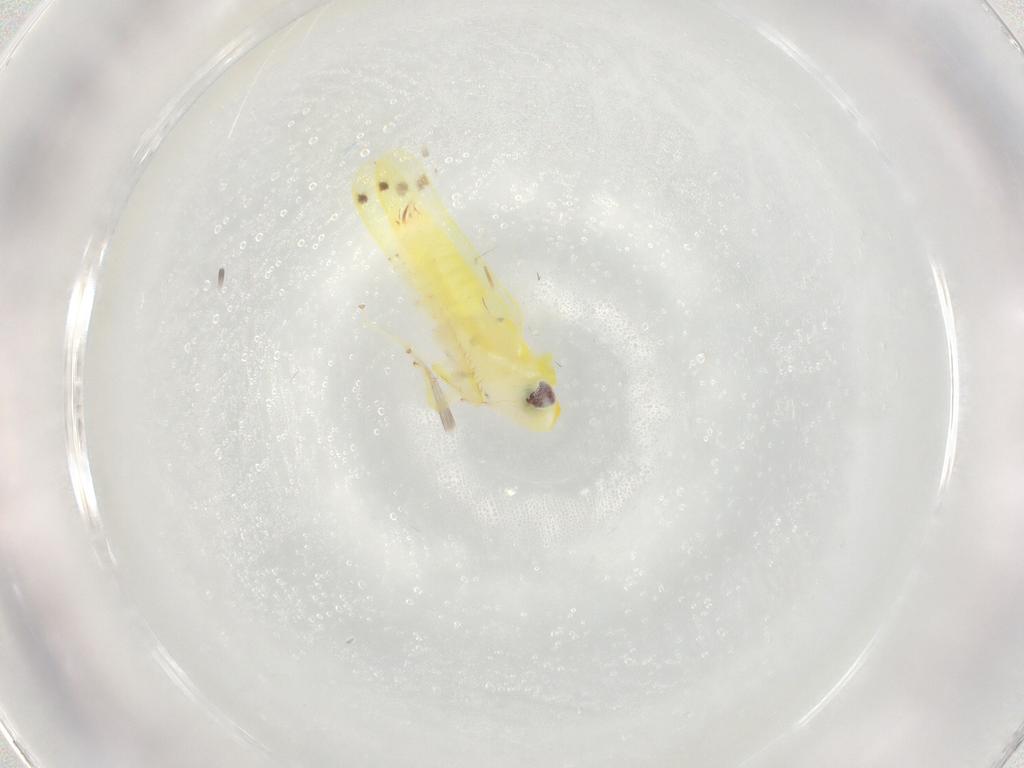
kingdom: Animalia
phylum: Arthropoda
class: Insecta
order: Hemiptera
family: Cicadellidae
